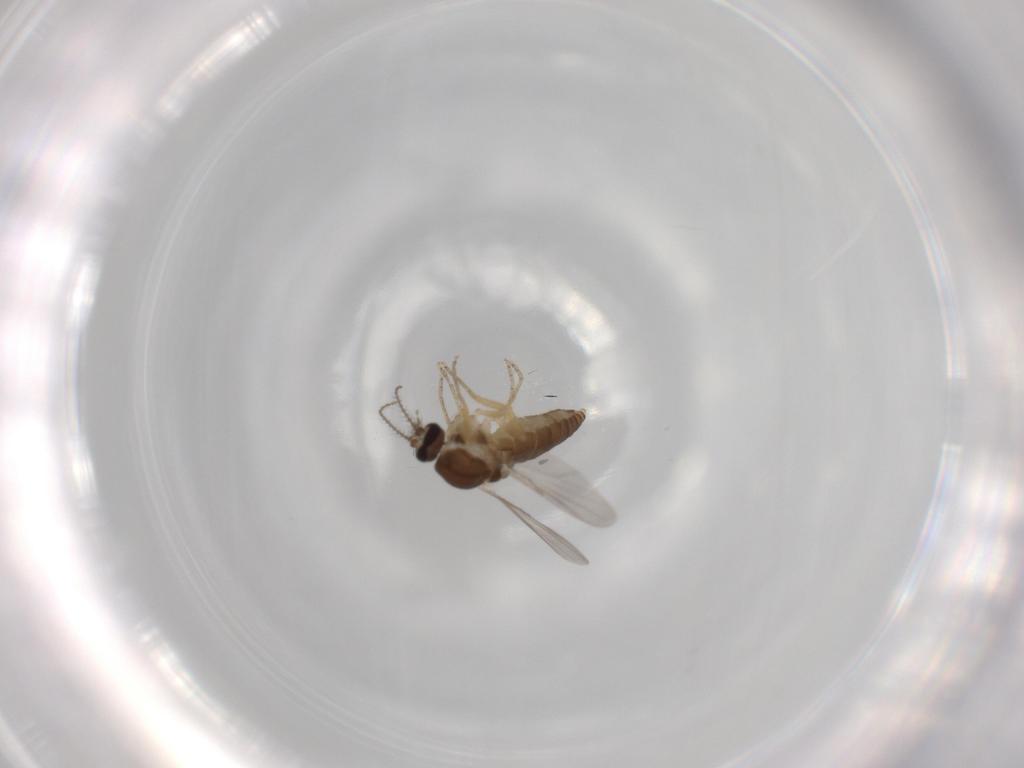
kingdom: Animalia
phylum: Arthropoda
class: Insecta
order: Diptera
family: Ceratopogonidae
